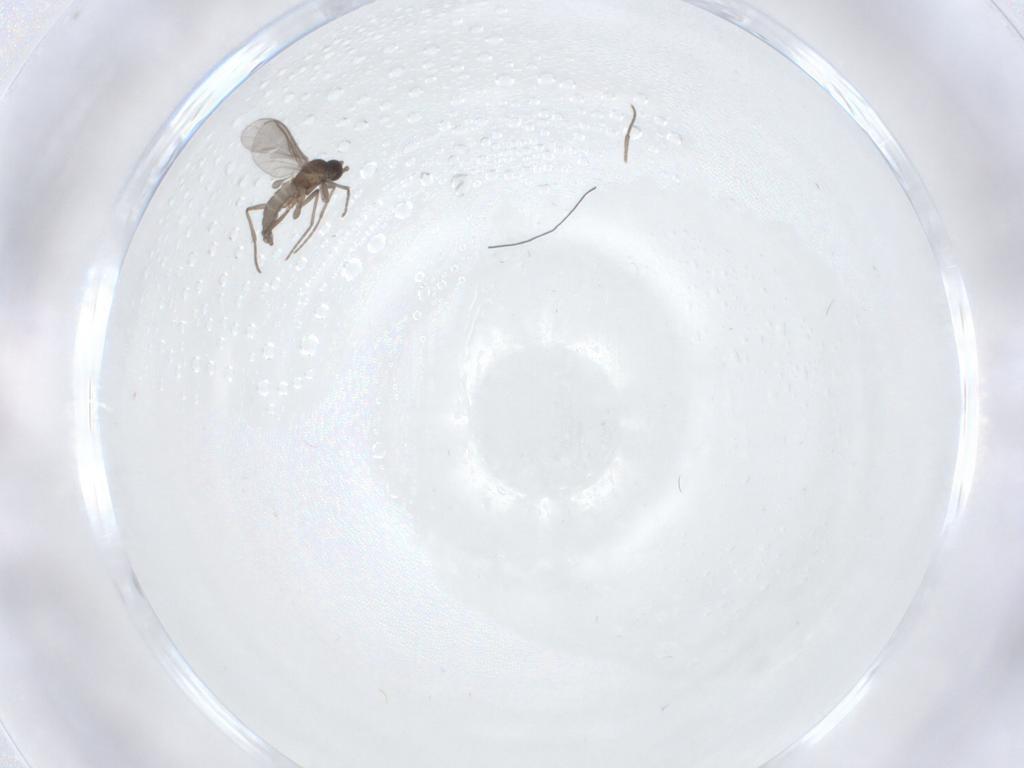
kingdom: Animalia
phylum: Arthropoda
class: Insecta
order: Diptera
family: Sciaridae
